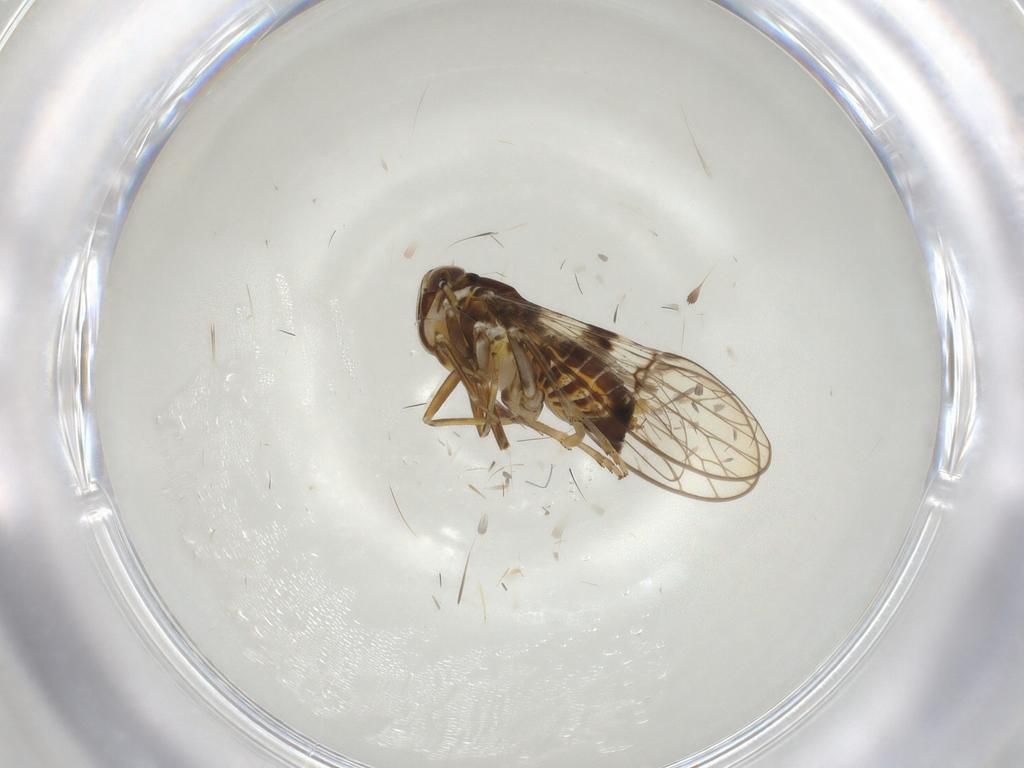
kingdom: Animalia
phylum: Arthropoda
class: Insecta
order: Hemiptera
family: Delphacidae
